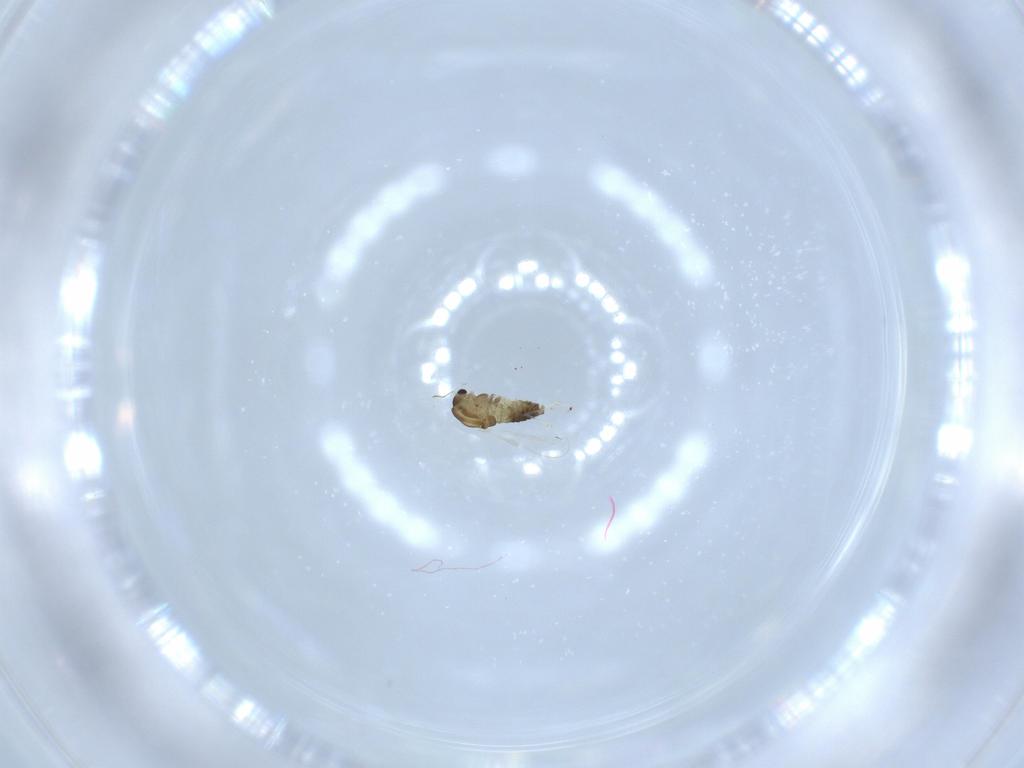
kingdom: Animalia
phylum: Arthropoda
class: Insecta
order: Diptera
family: Chironomidae
